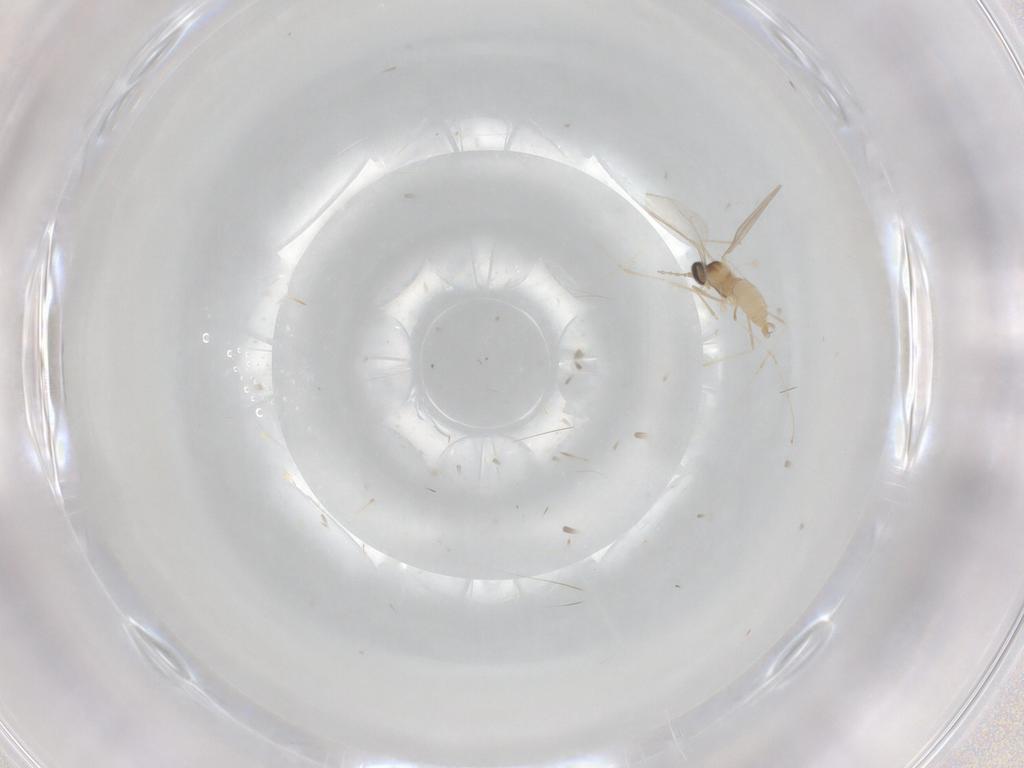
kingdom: Animalia
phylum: Arthropoda
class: Insecta
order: Diptera
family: Cecidomyiidae
